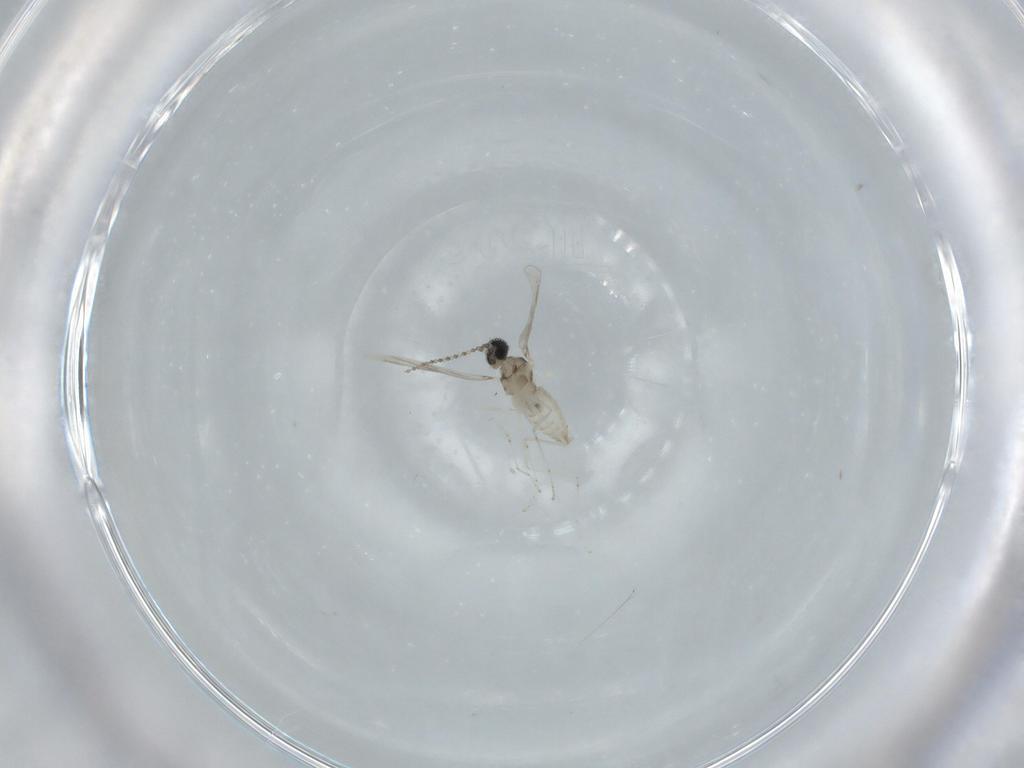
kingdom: Animalia
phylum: Arthropoda
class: Insecta
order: Diptera
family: Cecidomyiidae
